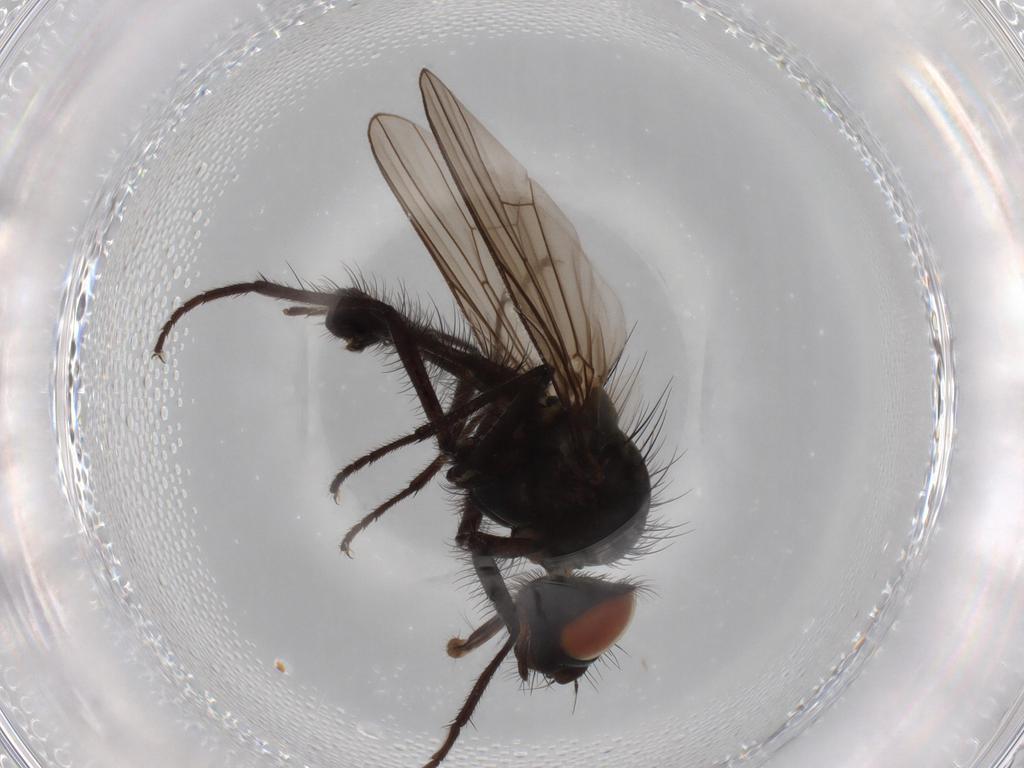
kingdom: Animalia
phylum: Arthropoda
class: Insecta
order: Diptera
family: Anthomyiidae
